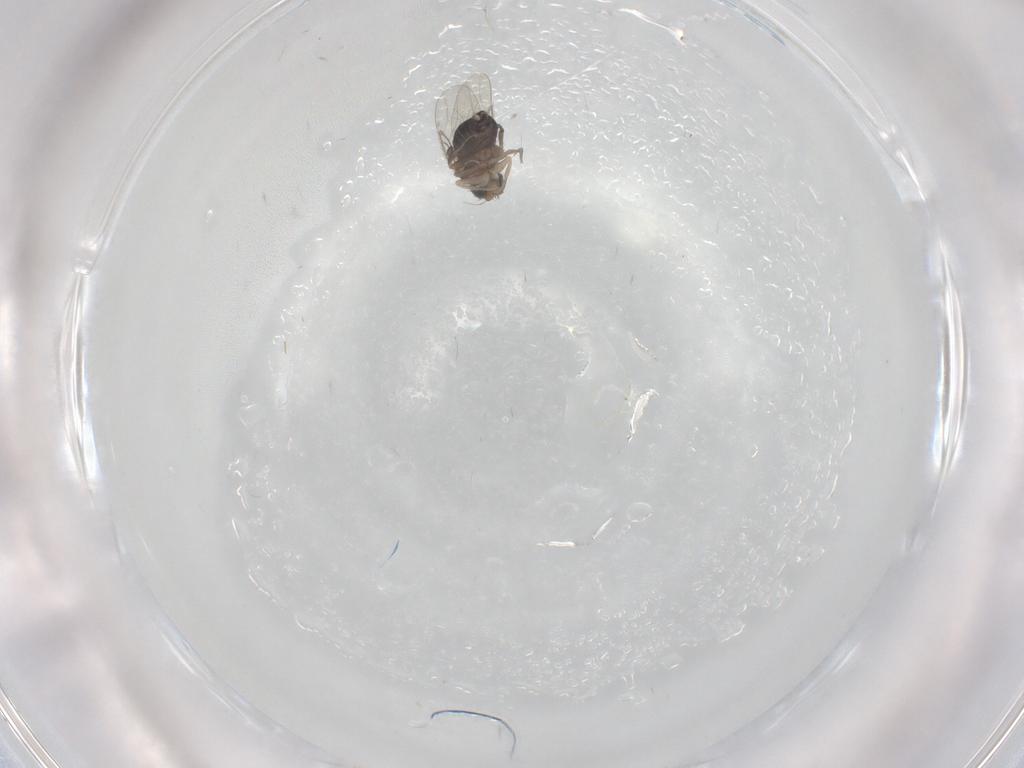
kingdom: Animalia
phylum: Arthropoda
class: Insecta
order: Diptera
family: Phoridae
